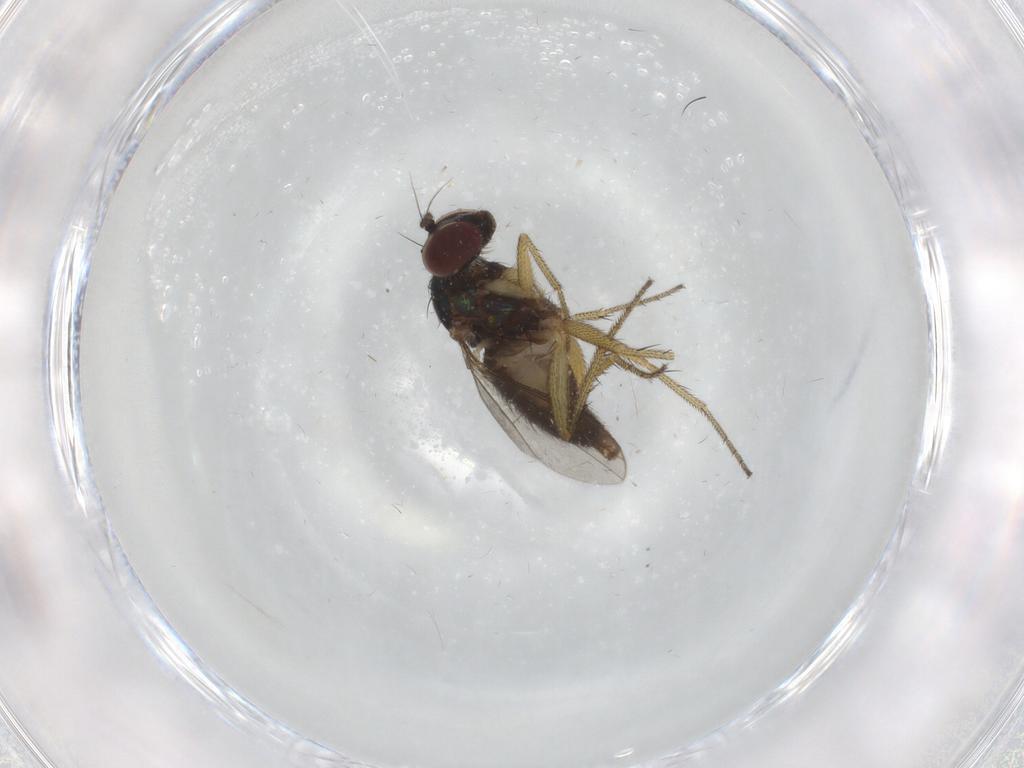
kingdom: Animalia
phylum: Arthropoda
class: Insecta
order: Diptera
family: Dolichopodidae
